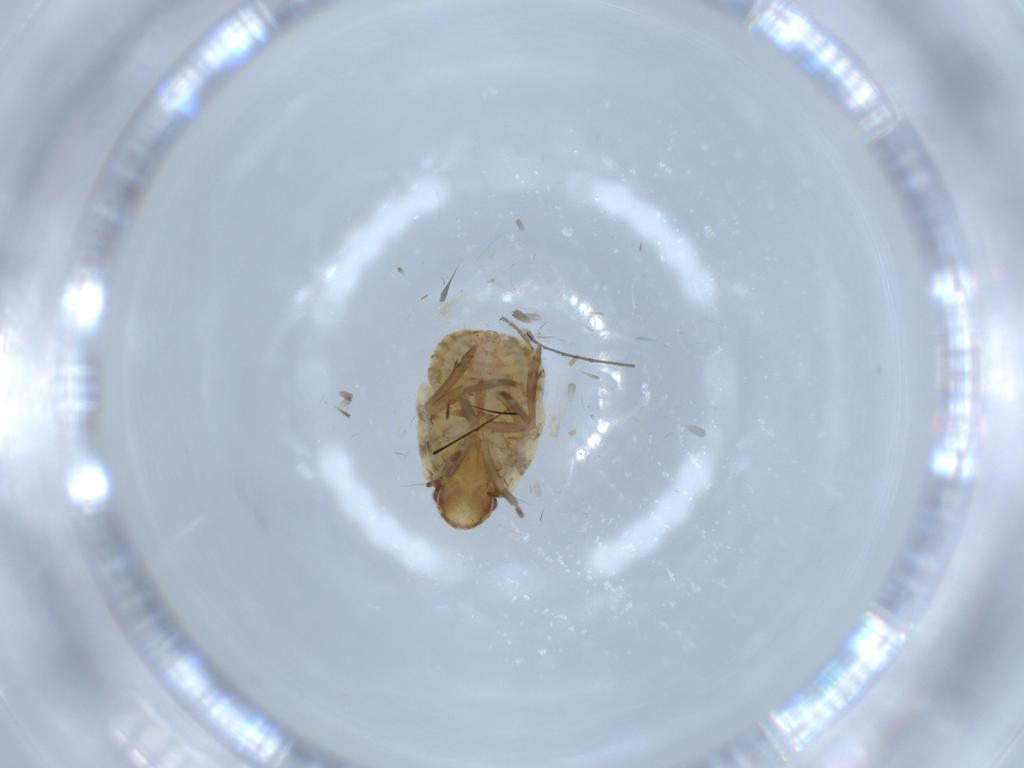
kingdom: Animalia
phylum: Arthropoda
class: Insecta
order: Hemiptera
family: Flatidae
